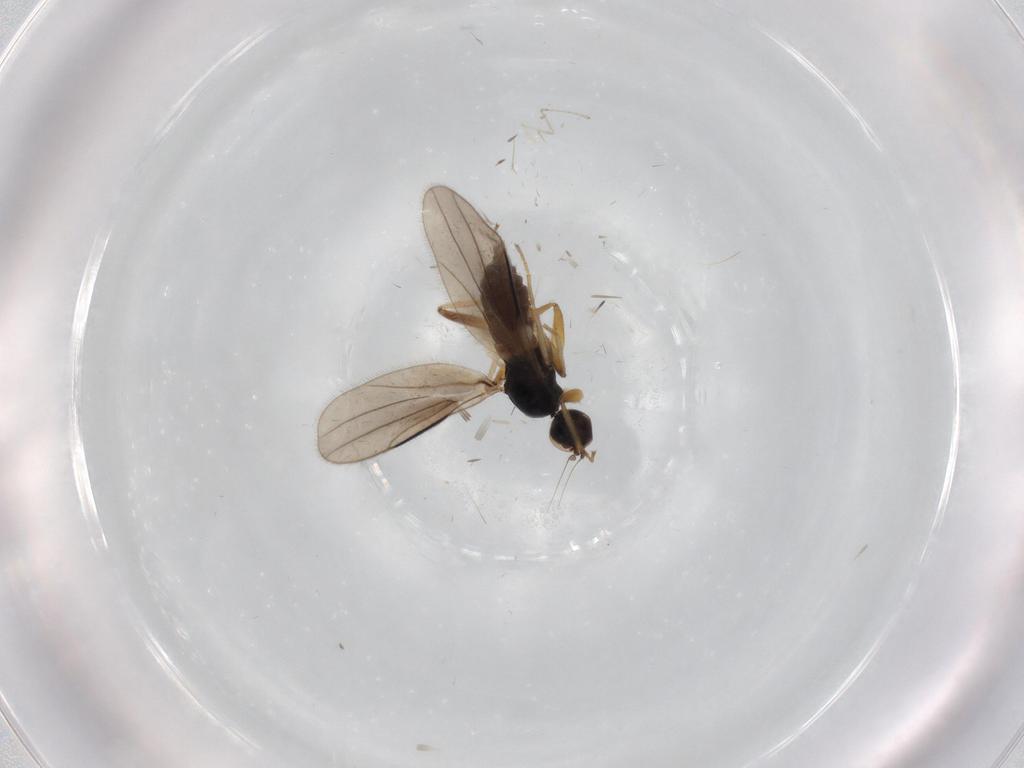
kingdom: Animalia
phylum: Arthropoda
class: Insecta
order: Diptera
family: Hybotidae
